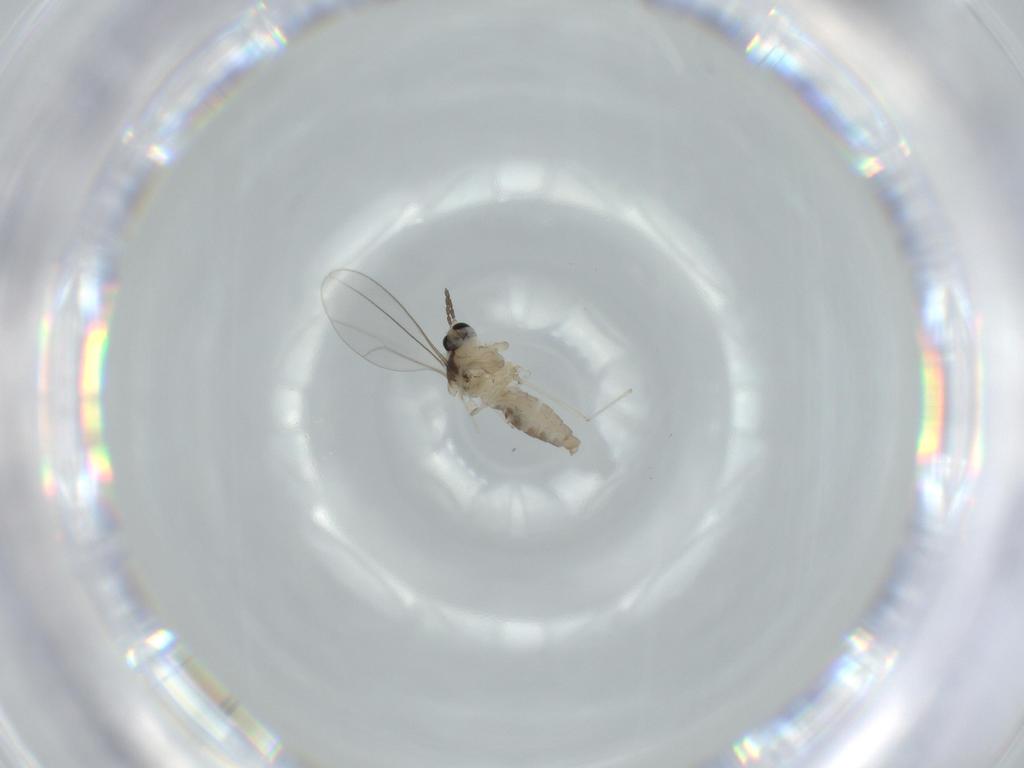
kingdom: Animalia
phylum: Arthropoda
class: Insecta
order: Diptera
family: Cecidomyiidae
